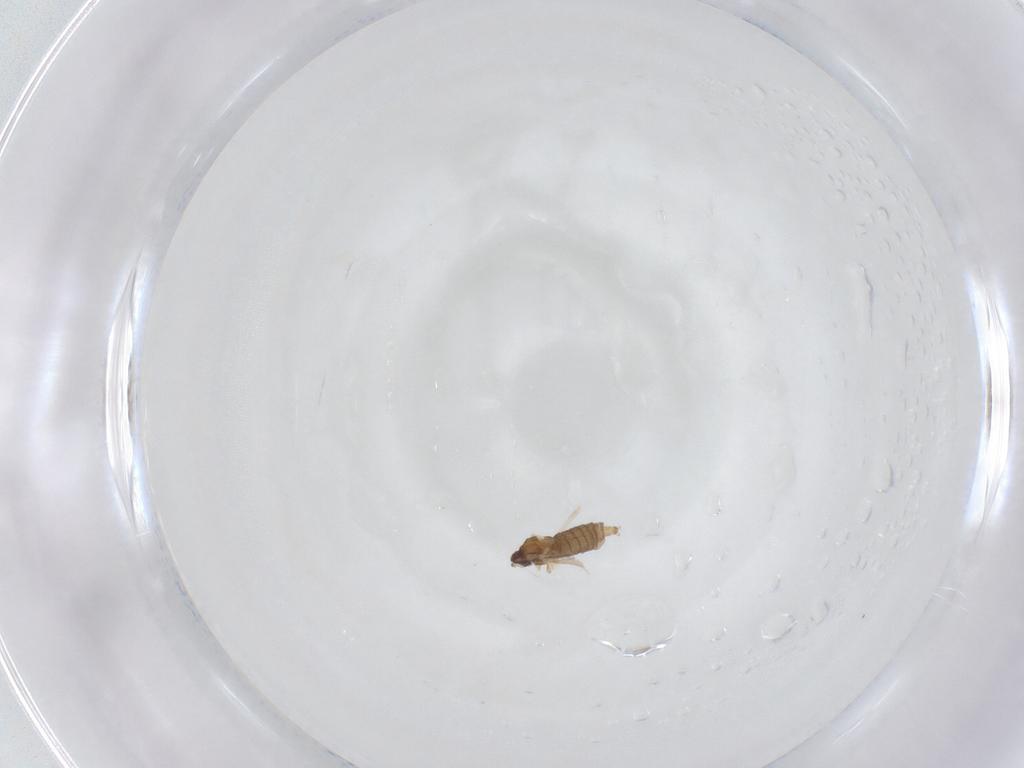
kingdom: Animalia
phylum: Arthropoda
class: Insecta
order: Diptera
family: Cecidomyiidae
